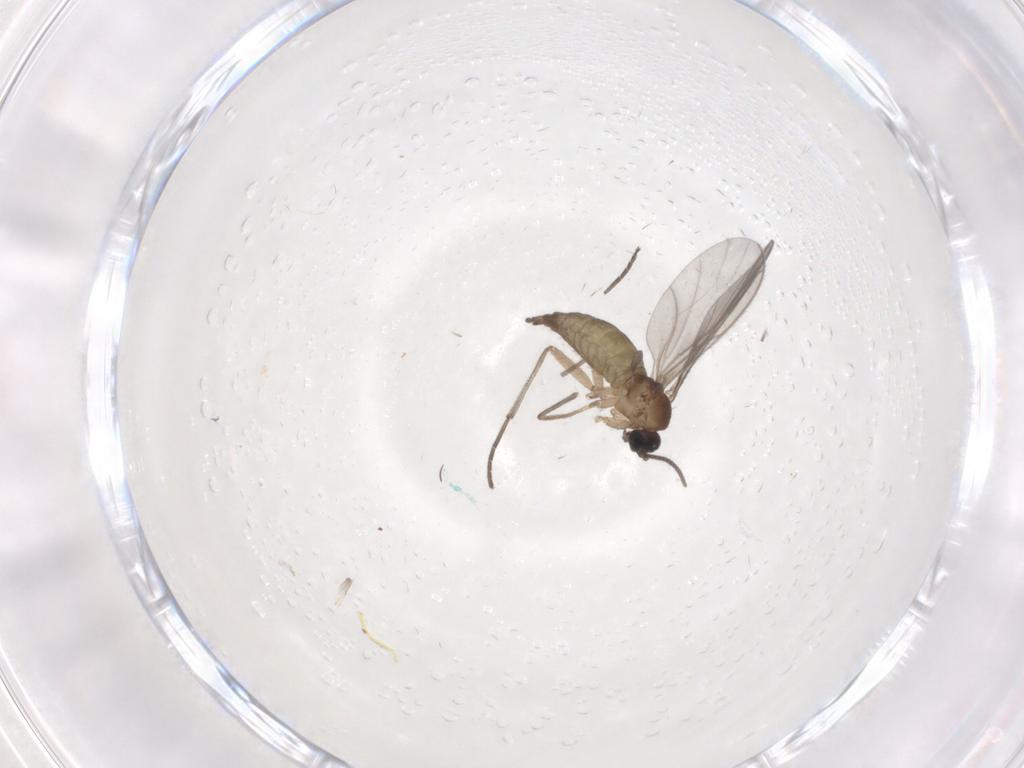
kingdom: Animalia
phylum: Arthropoda
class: Insecta
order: Diptera
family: Sciaridae
